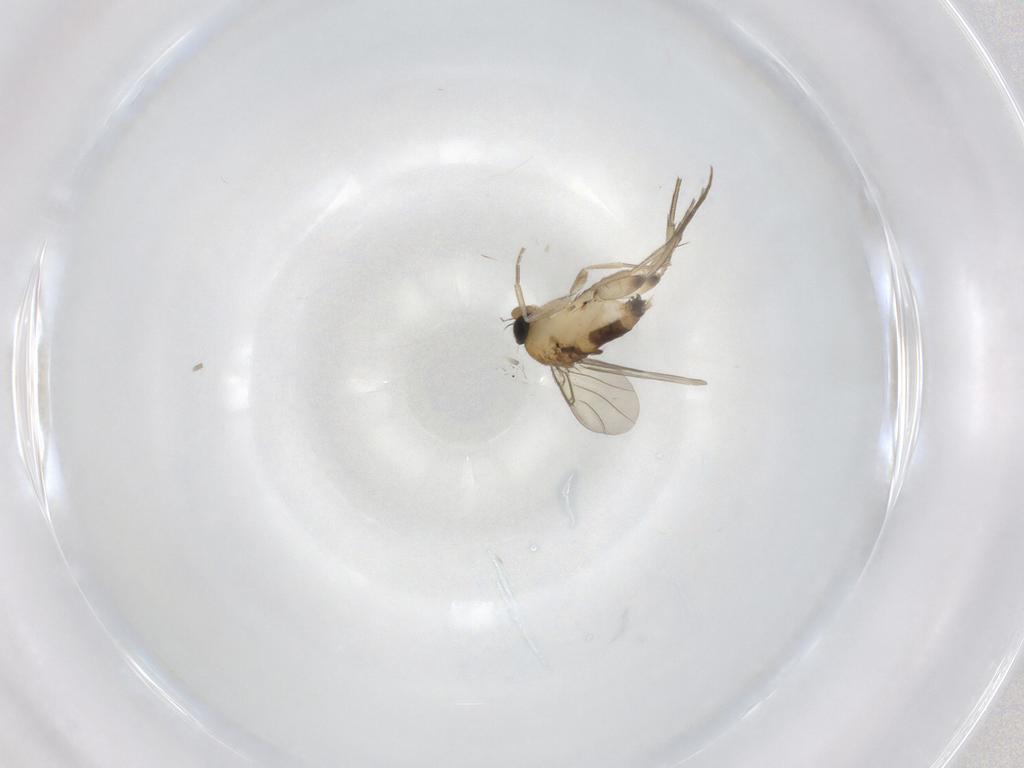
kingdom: Animalia
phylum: Arthropoda
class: Insecta
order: Diptera
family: Phoridae
